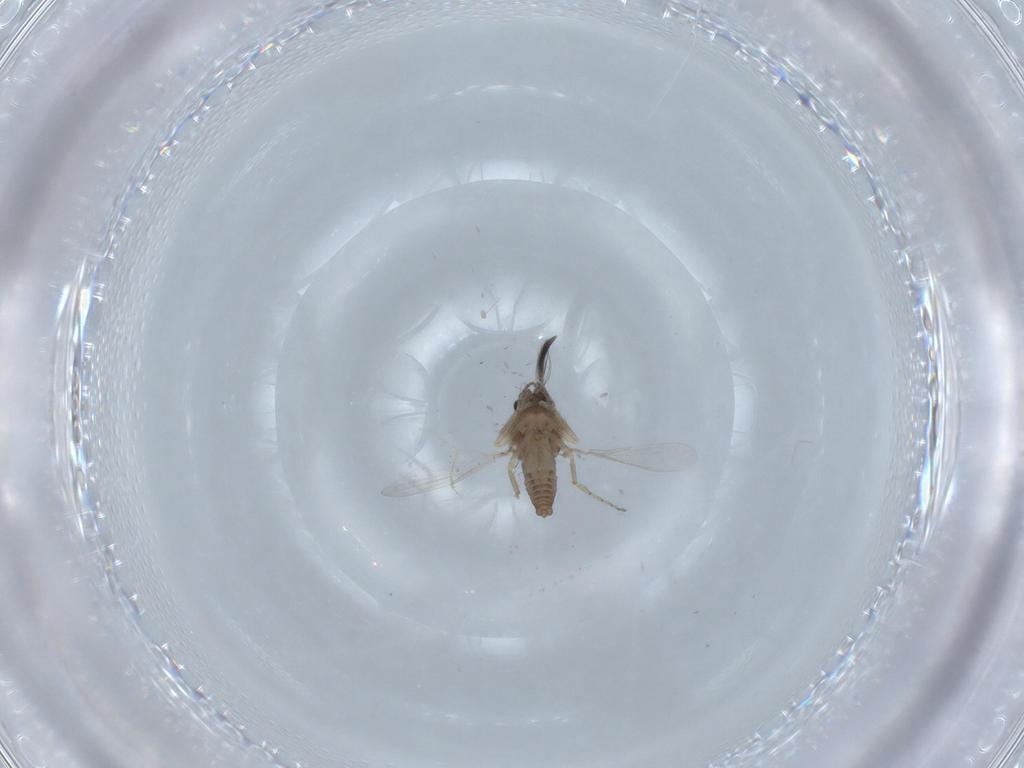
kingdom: Animalia
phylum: Arthropoda
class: Insecta
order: Diptera
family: Ceratopogonidae
